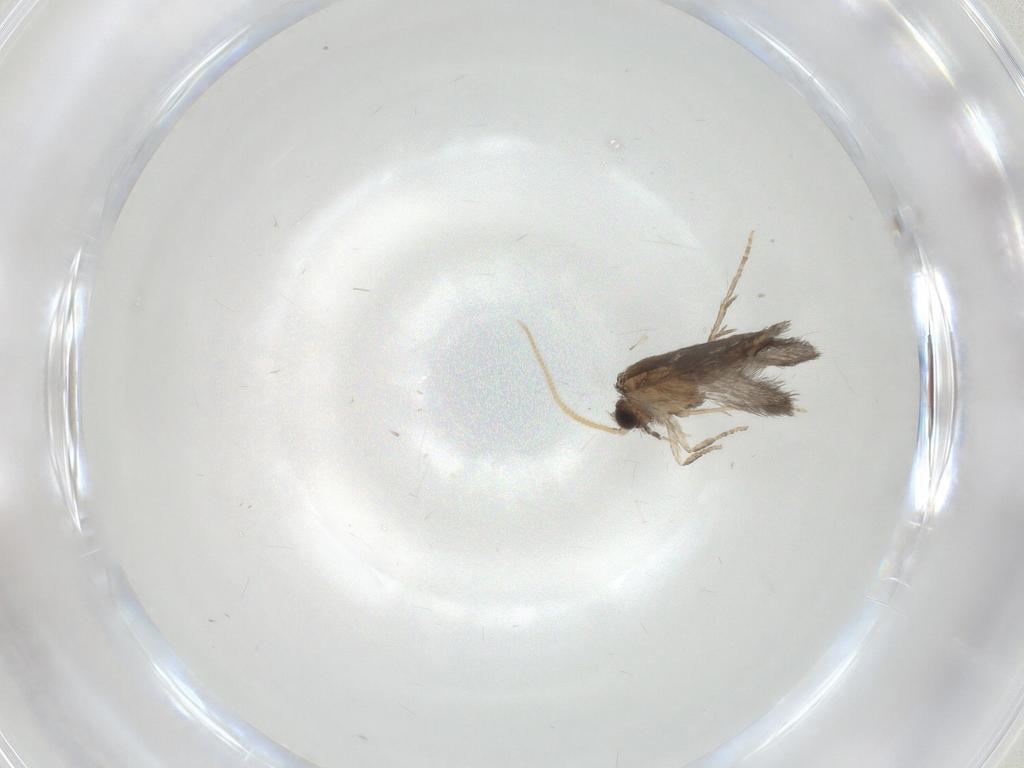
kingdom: Animalia
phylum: Arthropoda
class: Insecta
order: Trichoptera
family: Hydroptilidae
